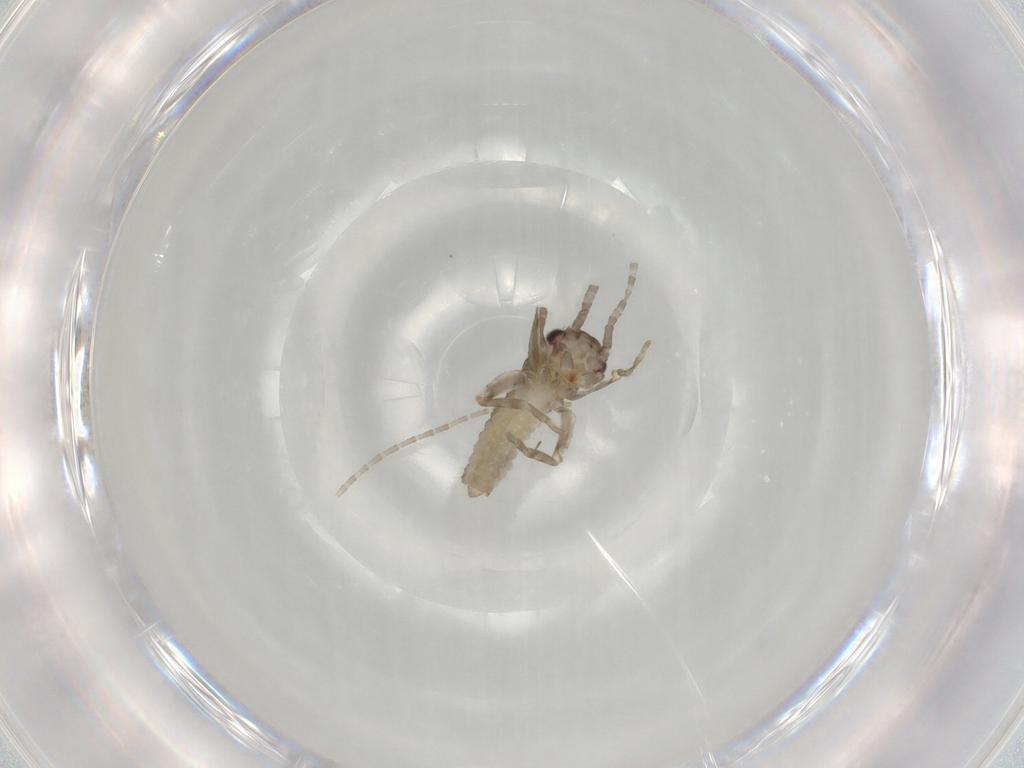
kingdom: Animalia
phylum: Arthropoda
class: Insecta
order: Orthoptera
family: Mogoplistidae
